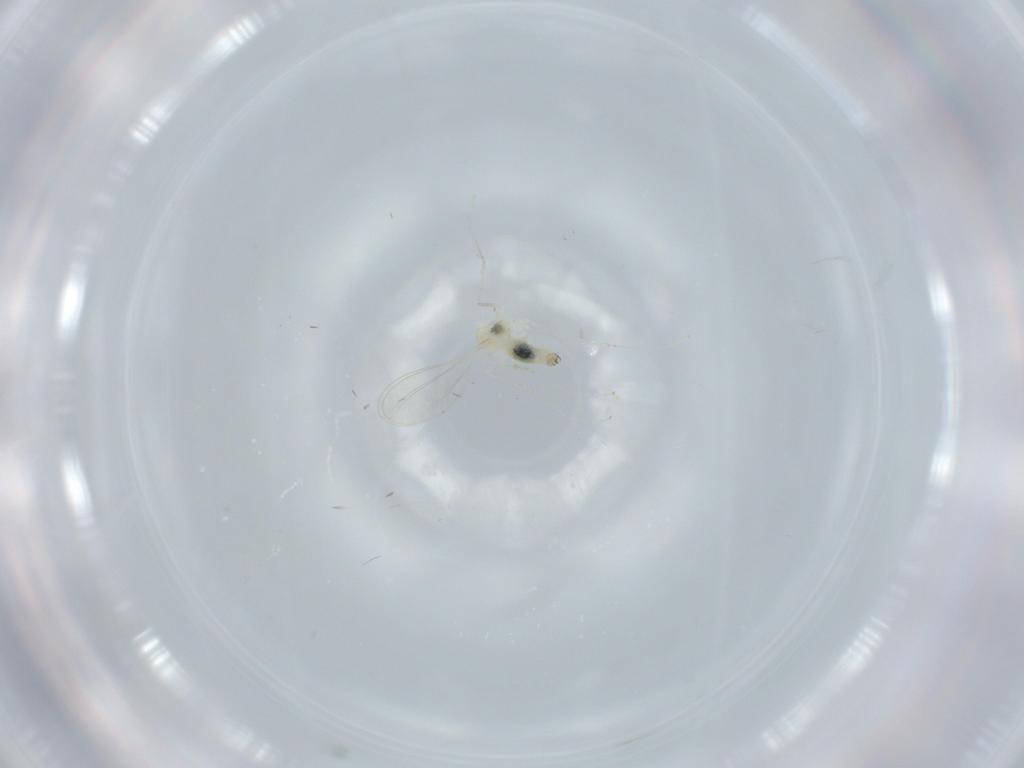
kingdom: Animalia
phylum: Arthropoda
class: Insecta
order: Diptera
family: Cecidomyiidae
